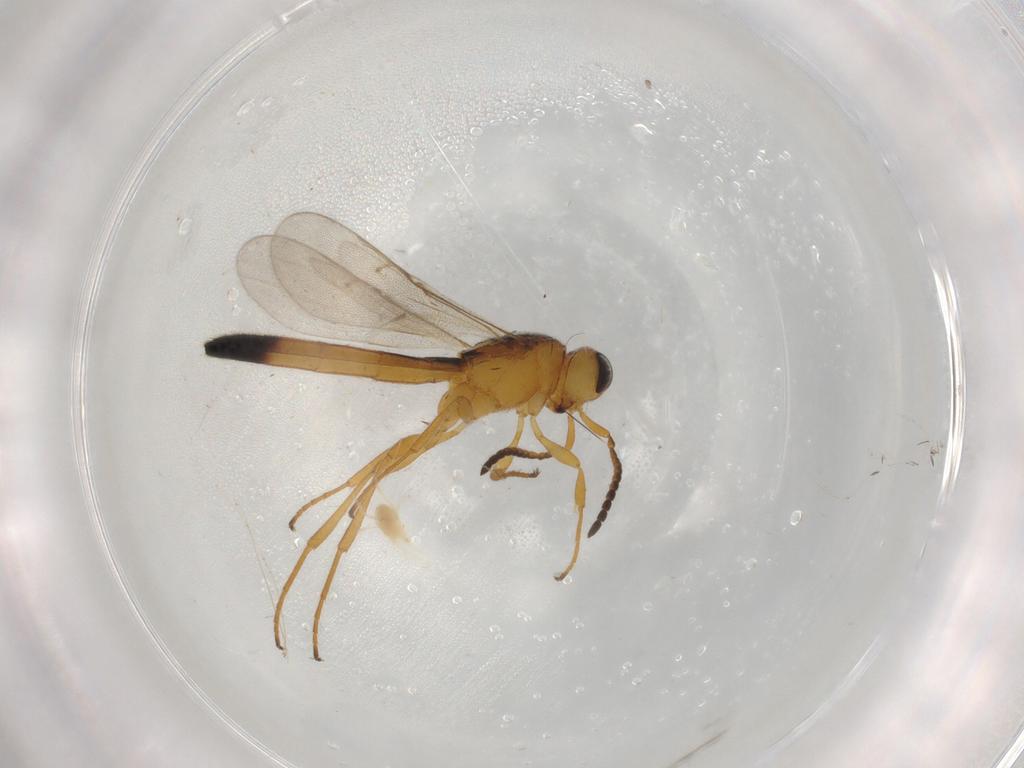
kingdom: Animalia
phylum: Arthropoda
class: Insecta
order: Hymenoptera
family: Scelionidae
